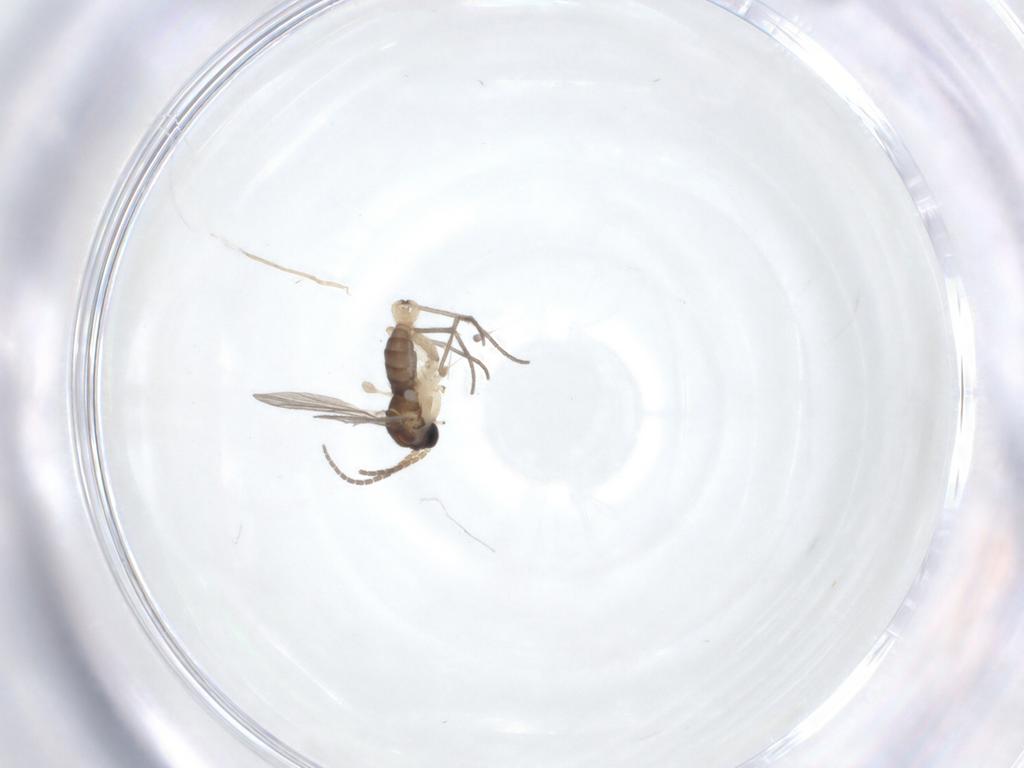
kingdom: Animalia
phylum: Arthropoda
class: Insecta
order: Diptera
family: Sciaridae
